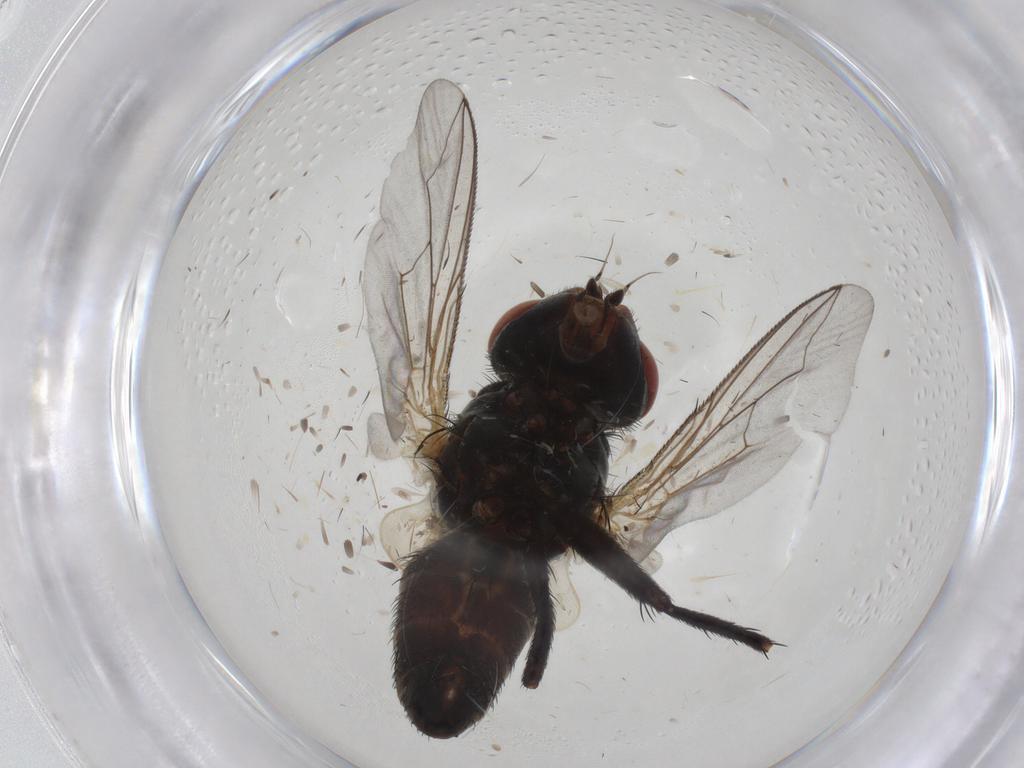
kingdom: Animalia
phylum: Arthropoda
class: Insecta
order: Diptera
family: Sarcophagidae
